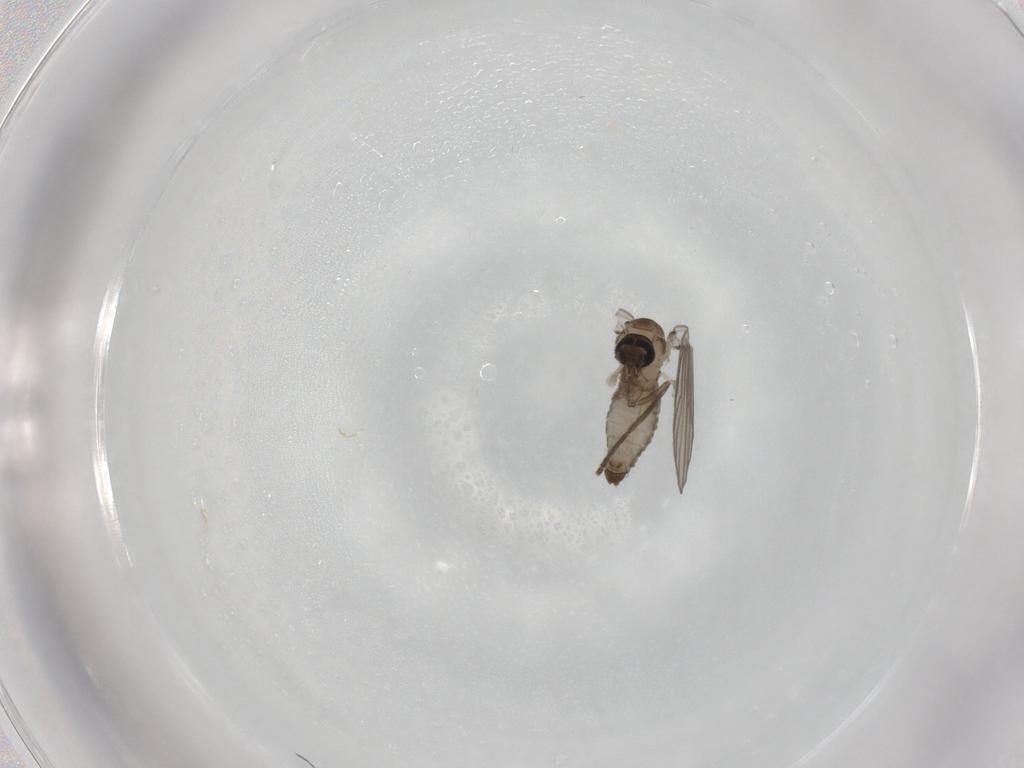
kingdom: Animalia
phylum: Arthropoda
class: Insecta
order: Diptera
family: Psychodidae
